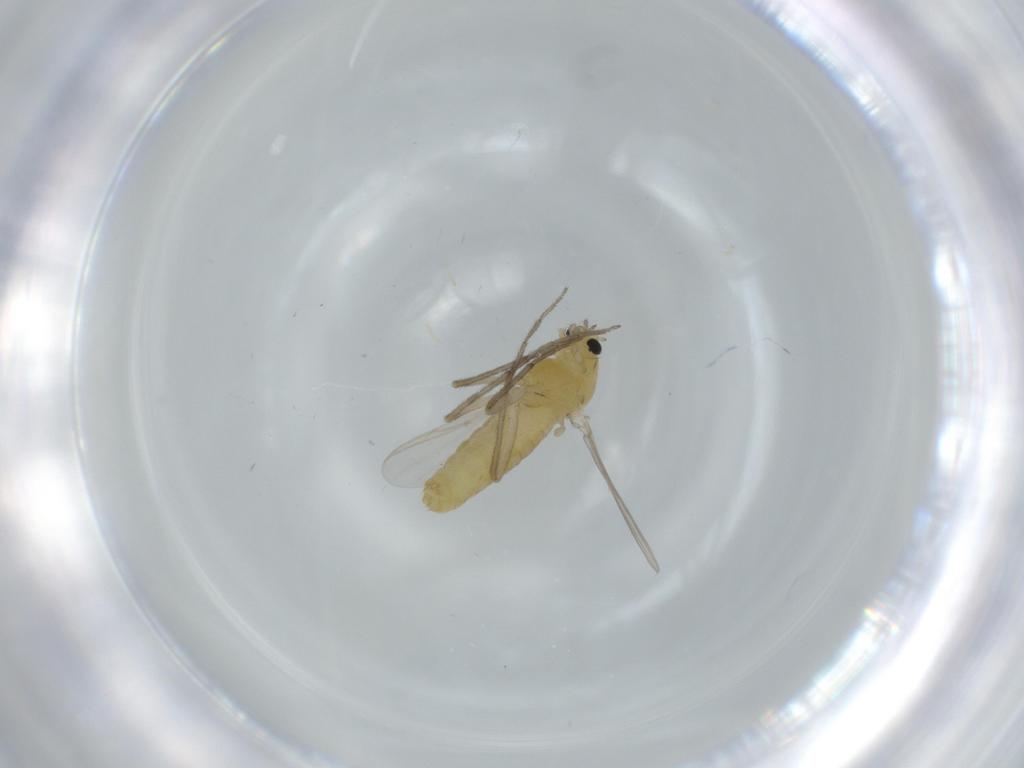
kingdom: Animalia
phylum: Arthropoda
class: Insecta
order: Diptera
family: Chironomidae
